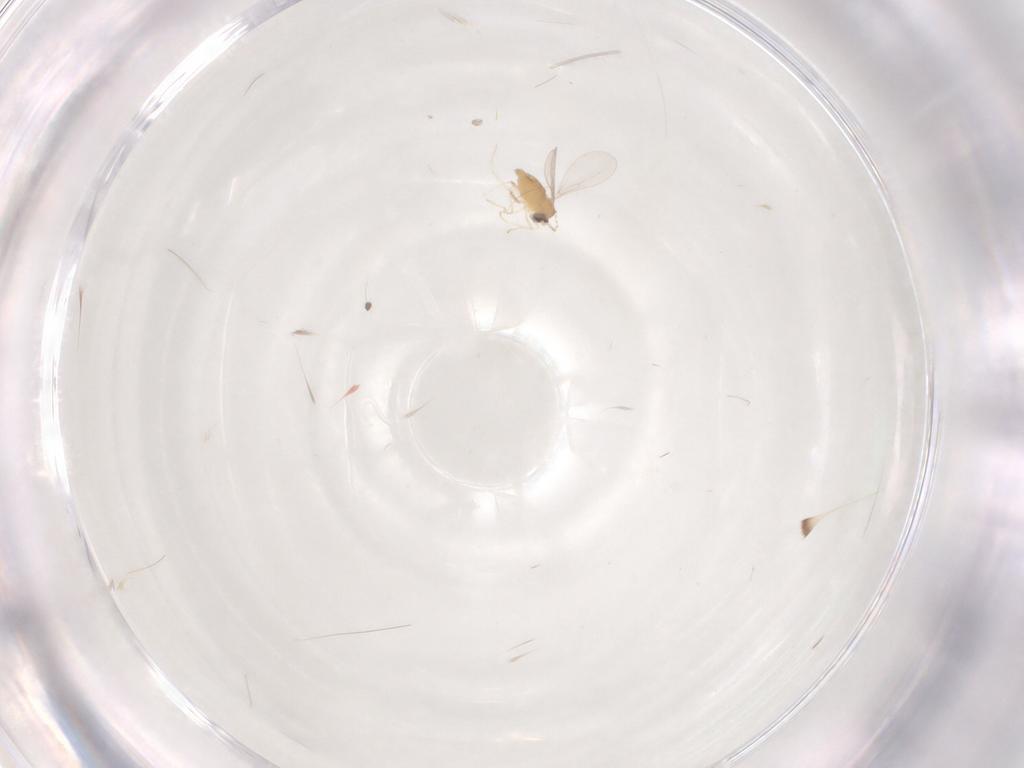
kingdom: Animalia
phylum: Arthropoda
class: Insecta
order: Diptera
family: Cecidomyiidae
